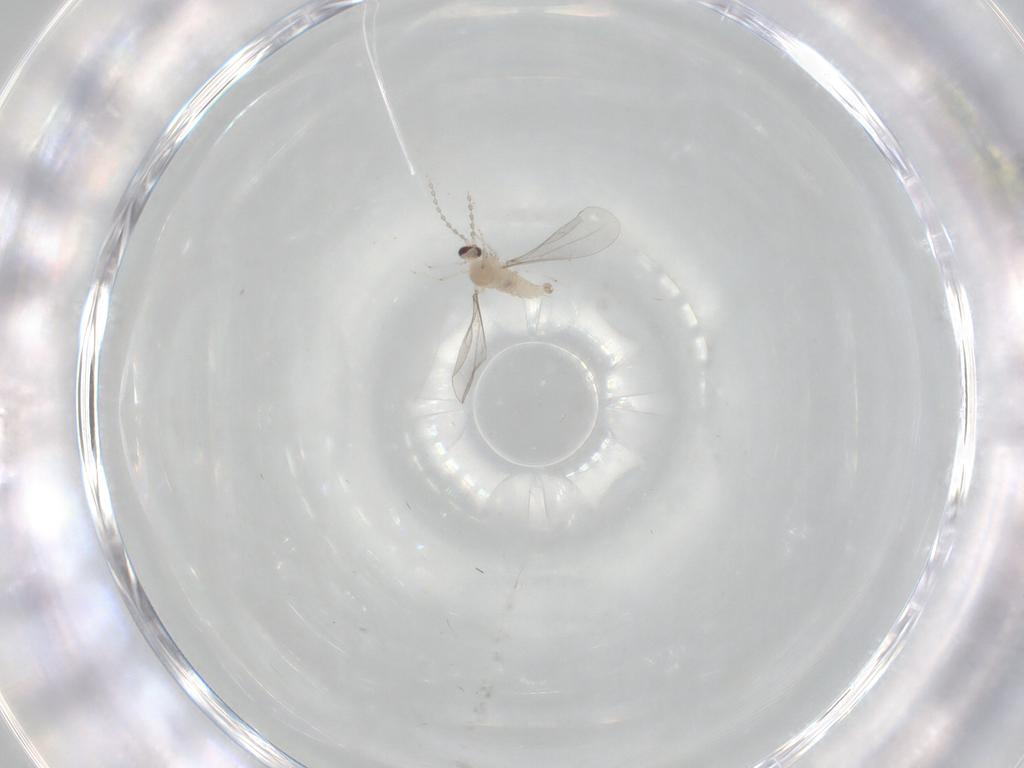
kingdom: Animalia
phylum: Arthropoda
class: Insecta
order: Diptera
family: Cecidomyiidae
